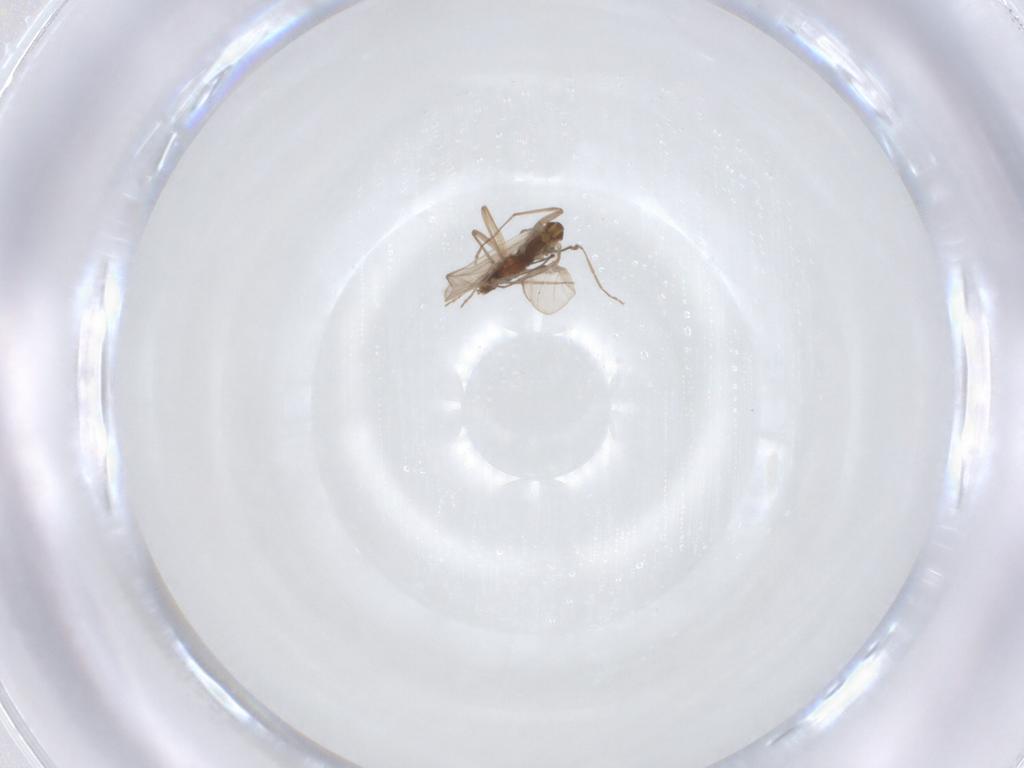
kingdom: Animalia
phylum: Arthropoda
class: Insecta
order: Diptera
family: Chironomidae
